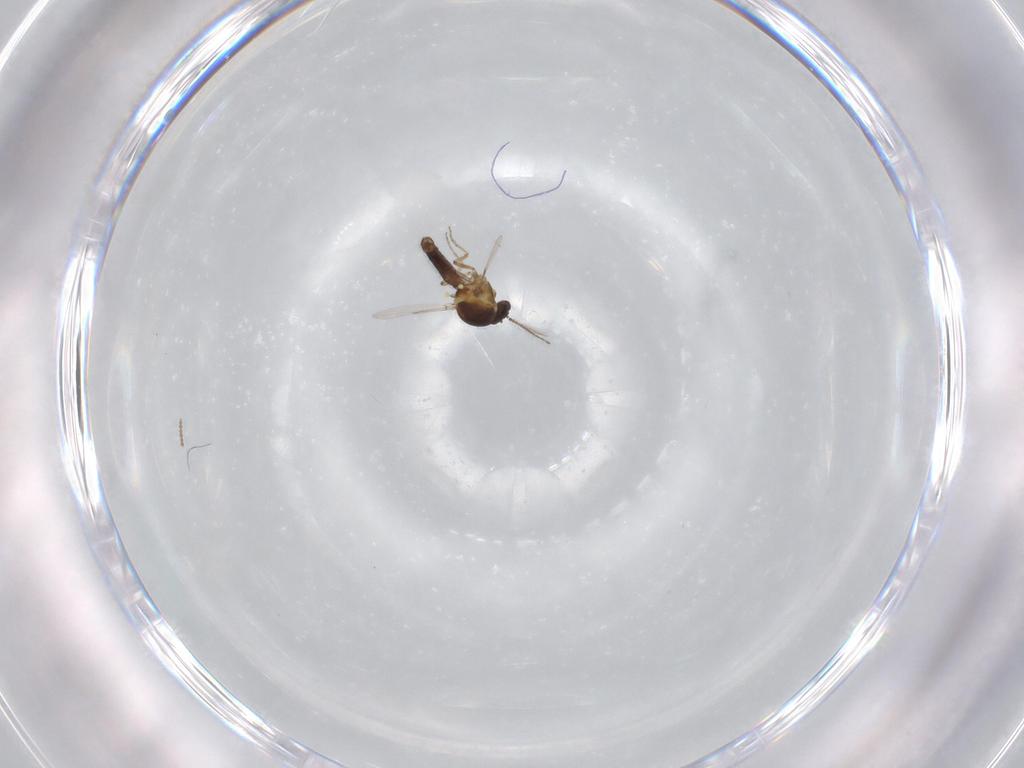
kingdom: Animalia
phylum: Arthropoda
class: Insecta
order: Diptera
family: Ceratopogonidae
